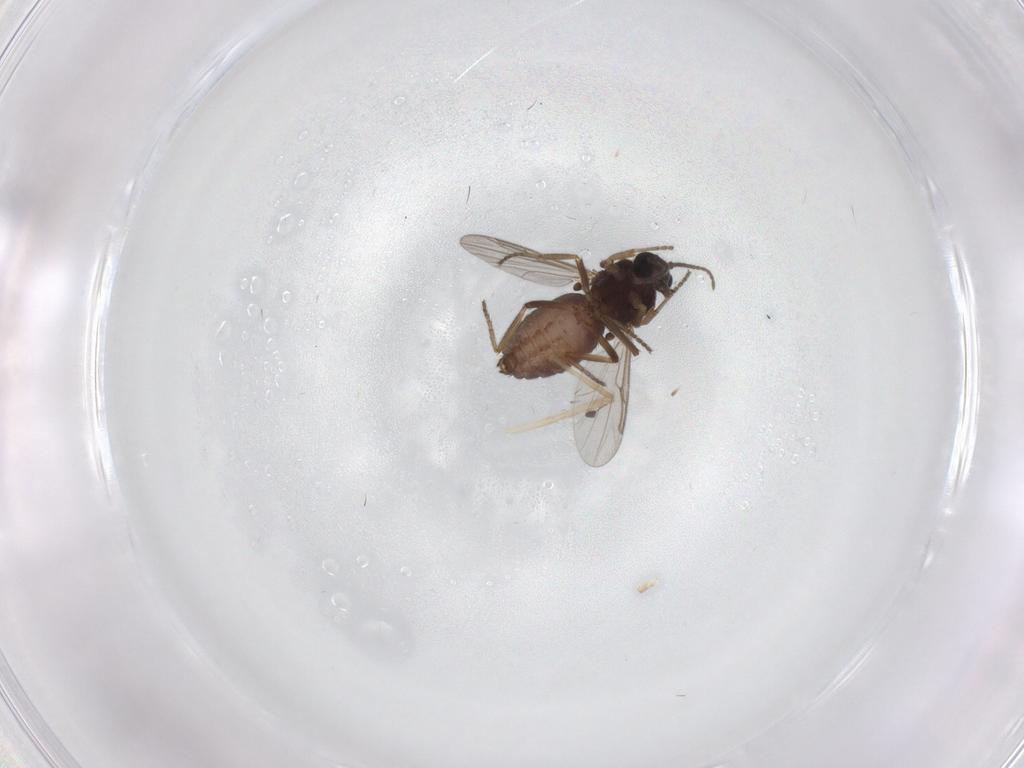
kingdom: Animalia
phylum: Arthropoda
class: Insecta
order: Diptera
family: Ceratopogonidae
